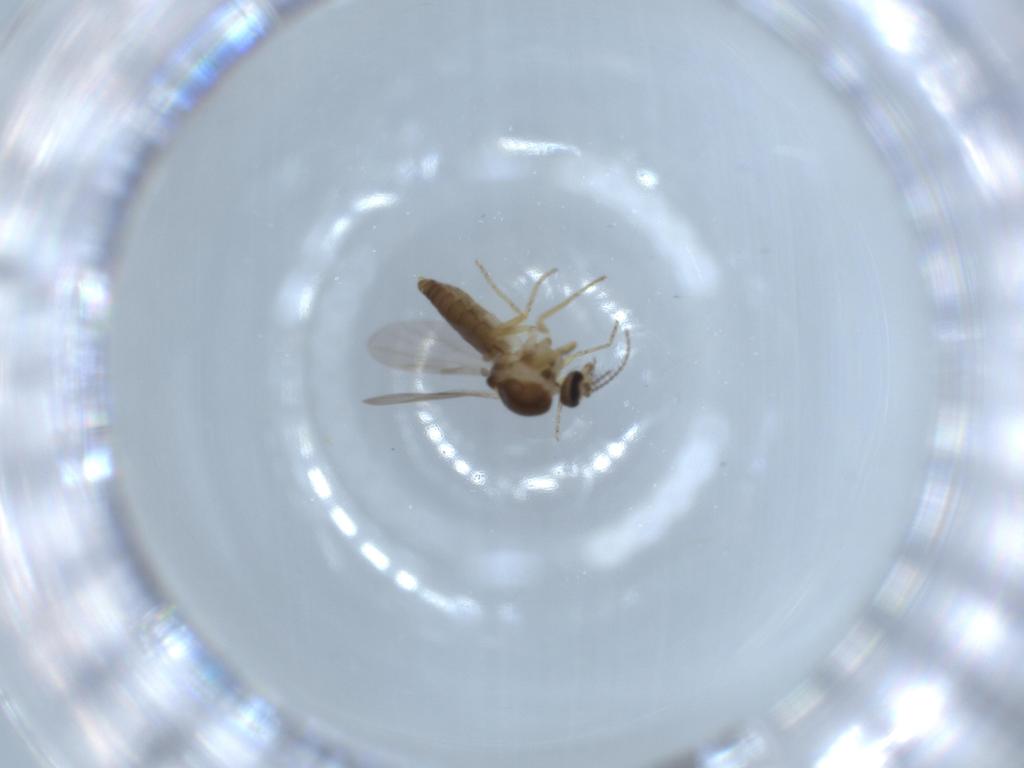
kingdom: Animalia
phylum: Arthropoda
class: Insecta
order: Diptera
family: Ceratopogonidae
